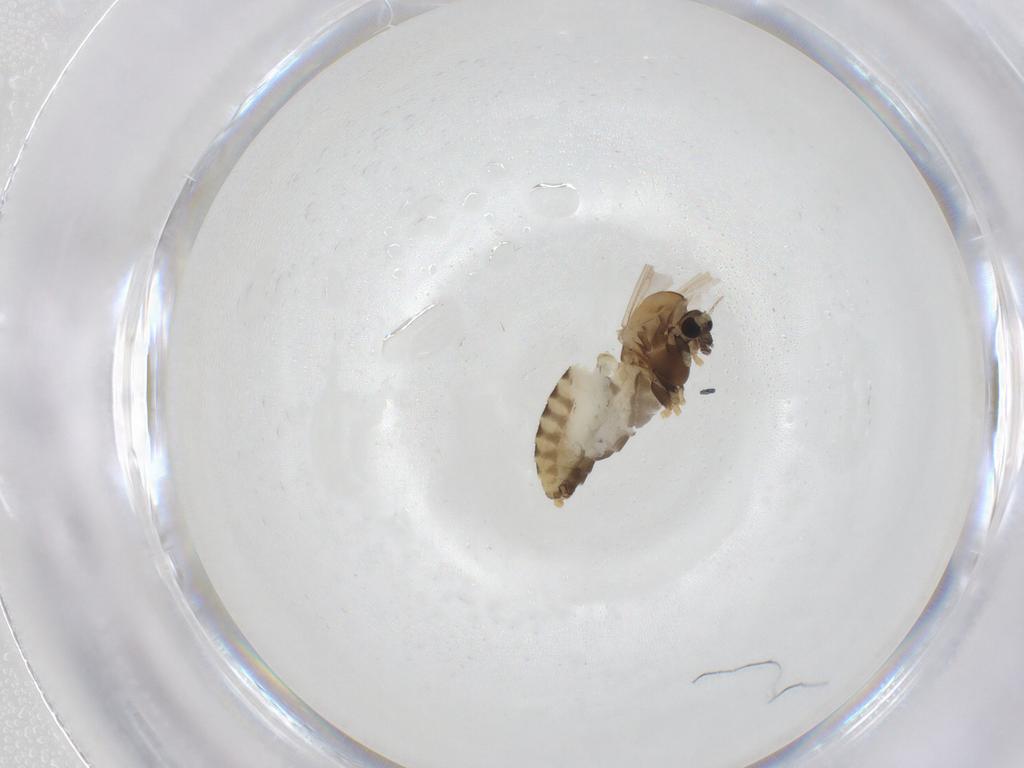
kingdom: Animalia
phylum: Arthropoda
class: Insecta
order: Diptera
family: Chironomidae
